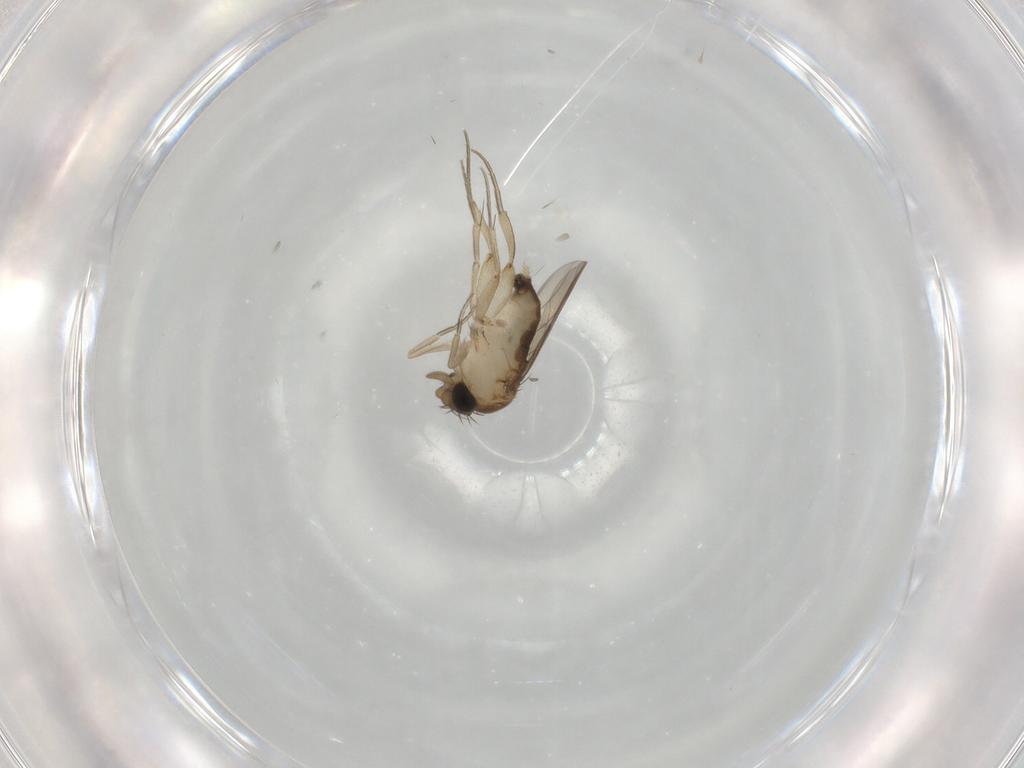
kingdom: Animalia
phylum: Arthropoda
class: Insecta
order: Diptera
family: Phoridae
